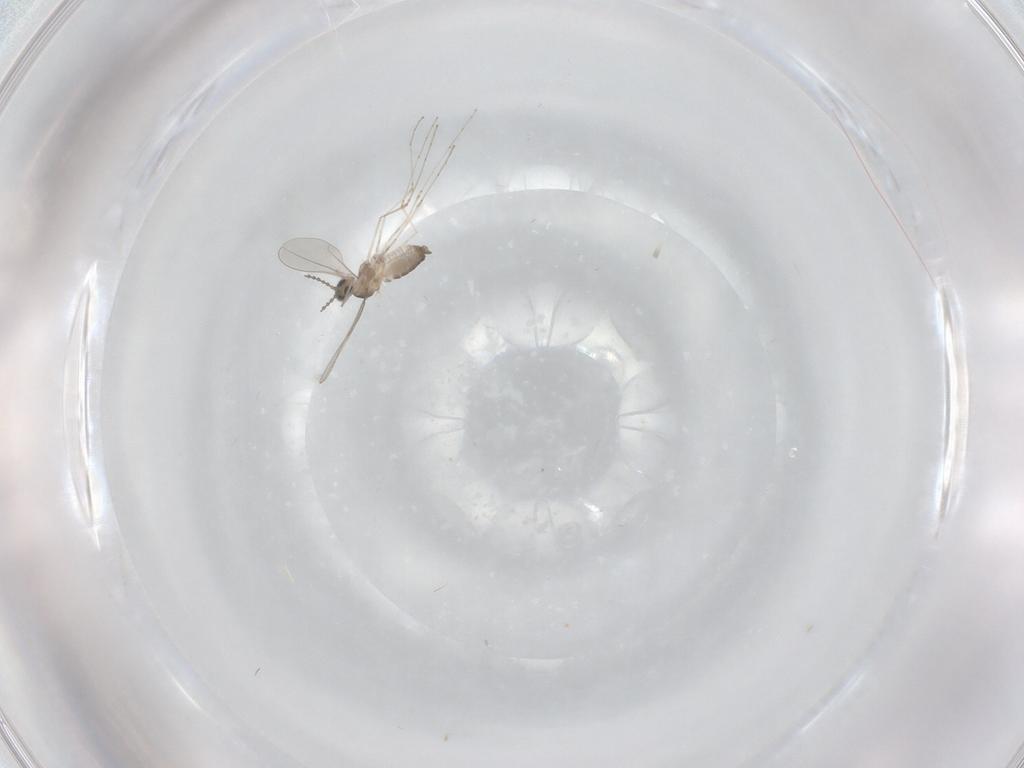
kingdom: Animalia
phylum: Arthropoda
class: Insecta
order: Diptera
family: Cecidomyiidae
